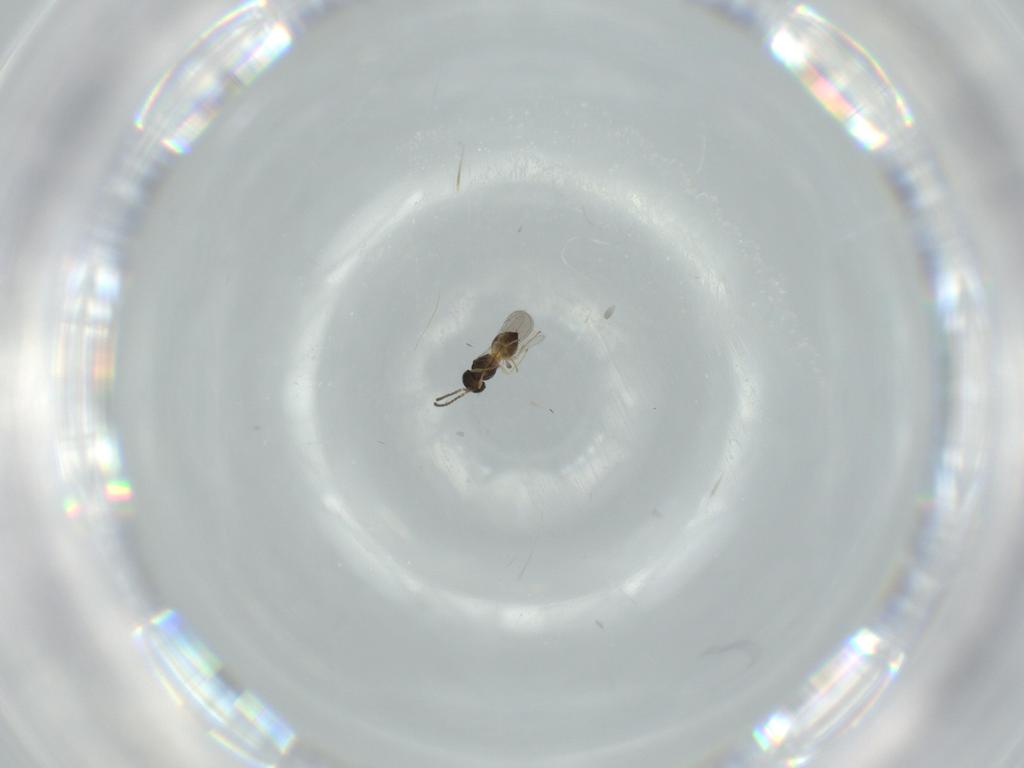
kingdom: Animalia
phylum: Arthropoda
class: Insecta
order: Hymenoptera
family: Scelionidae
